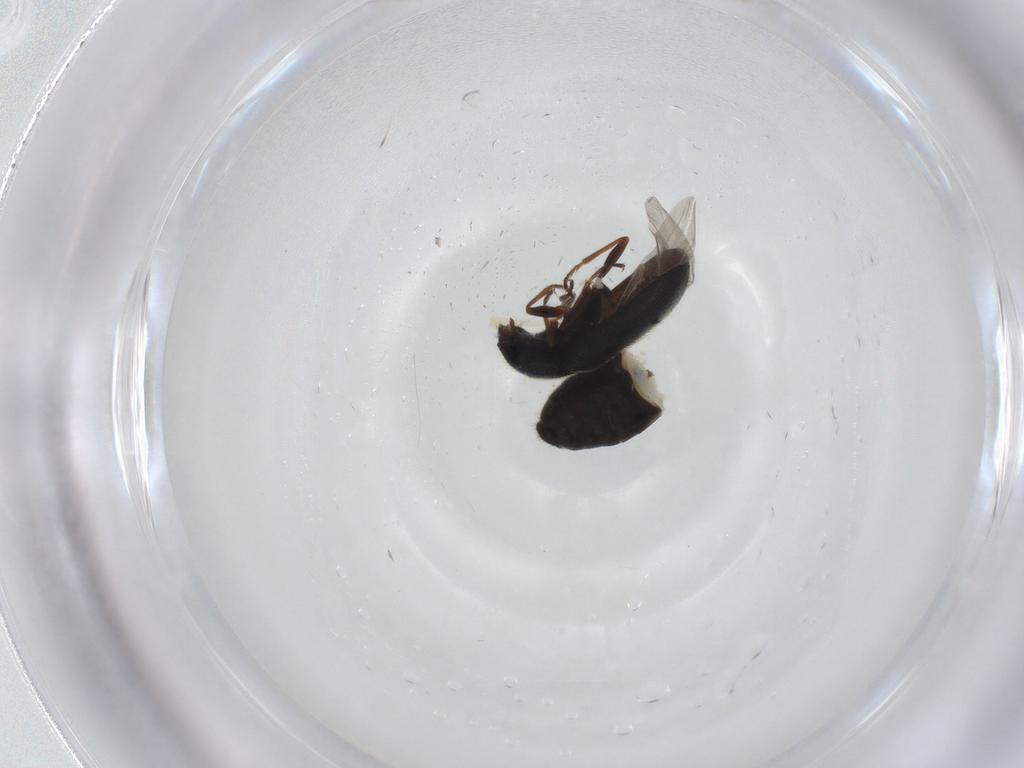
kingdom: Animalia
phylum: Arthropoda
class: Insecta
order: Coleoptera
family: Melyridae
